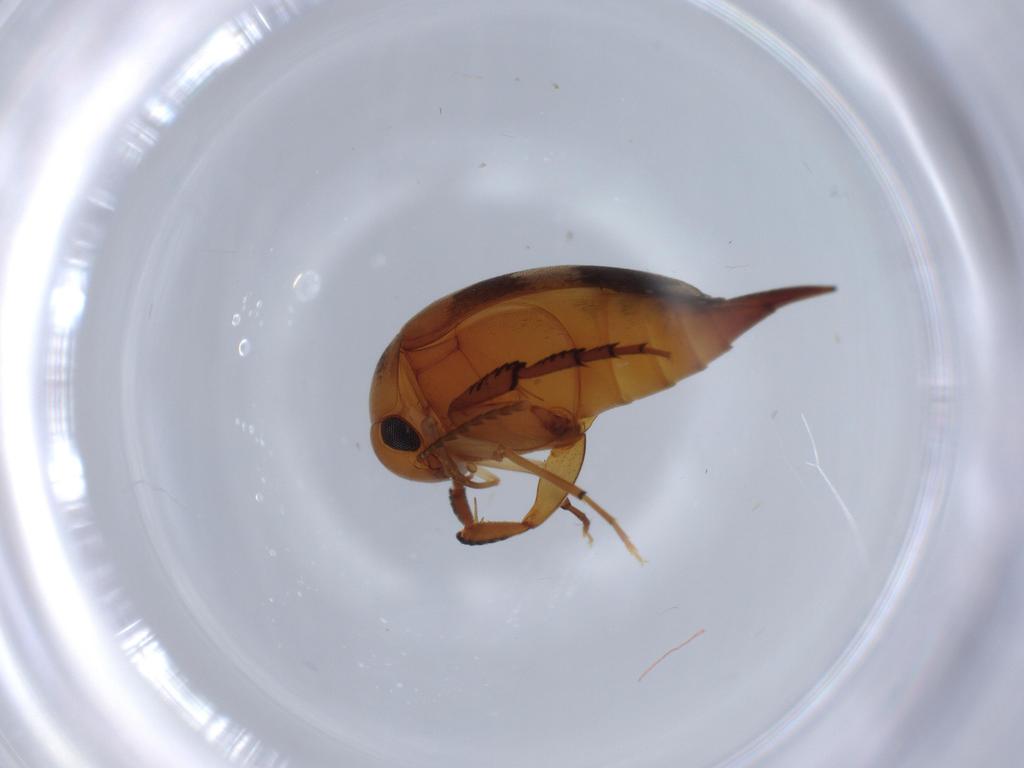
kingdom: Animalia
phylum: Arthropoda
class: Insecta
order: Coleoptera
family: Mordellidae
